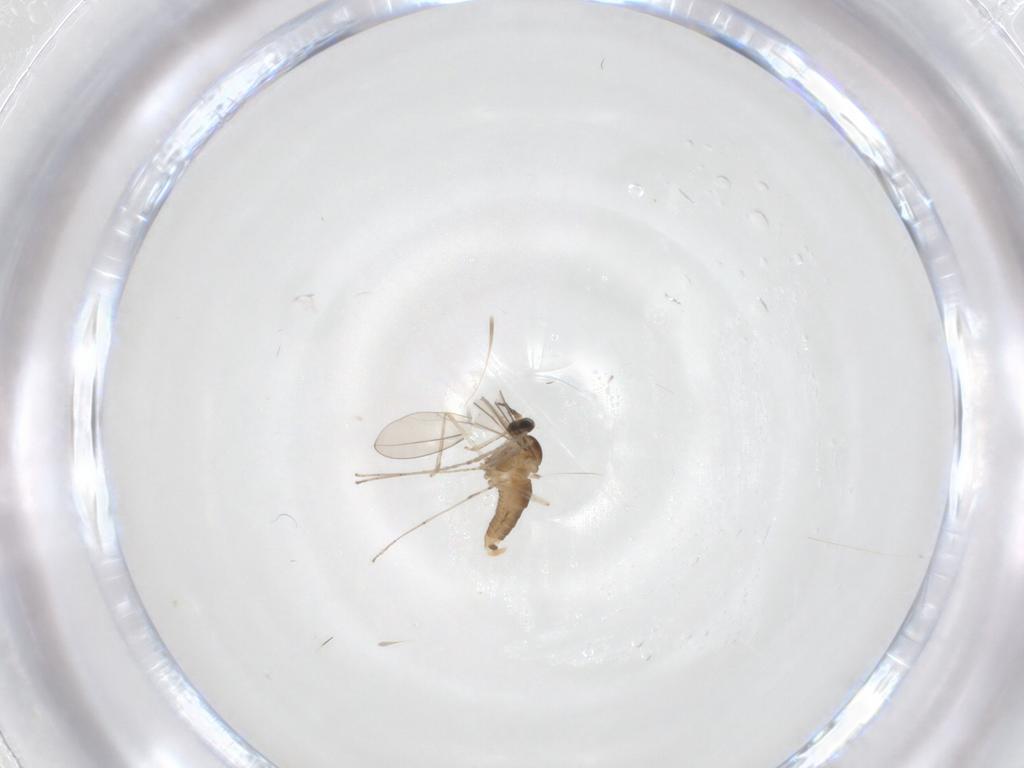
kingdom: Animalia
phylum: Arthropoda
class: Insecta
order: Diptera
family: Cecidomyiidae
